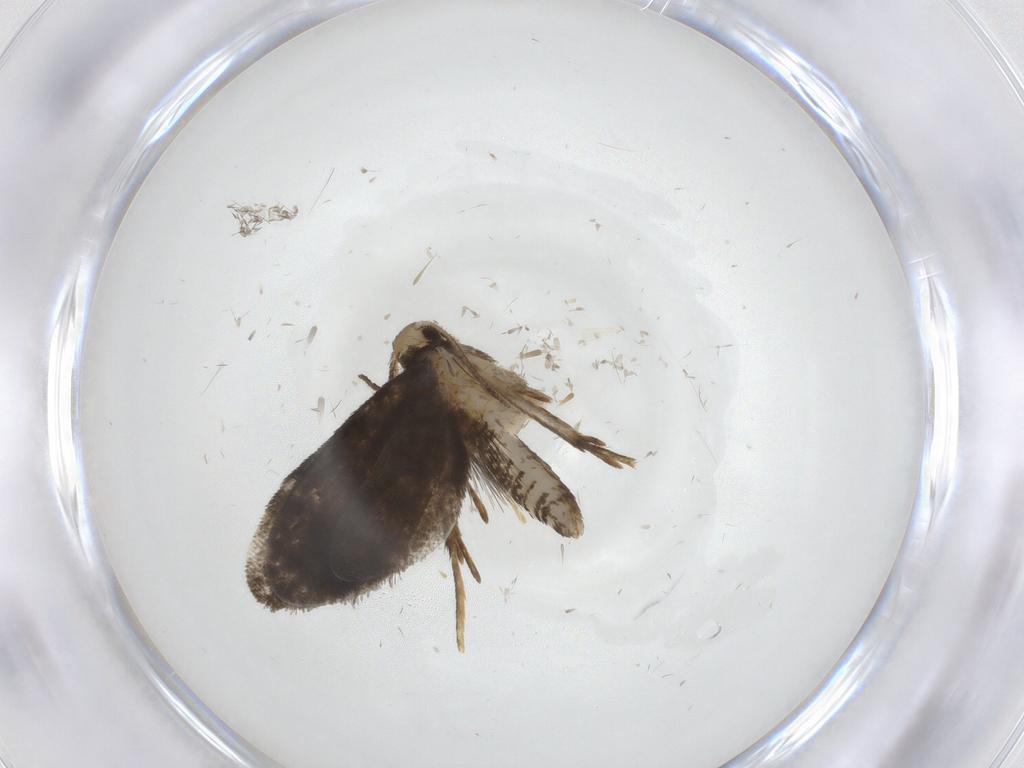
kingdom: Animalia
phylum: Arthropoda
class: Insecta
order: Lepidoptera
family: Psychidae
